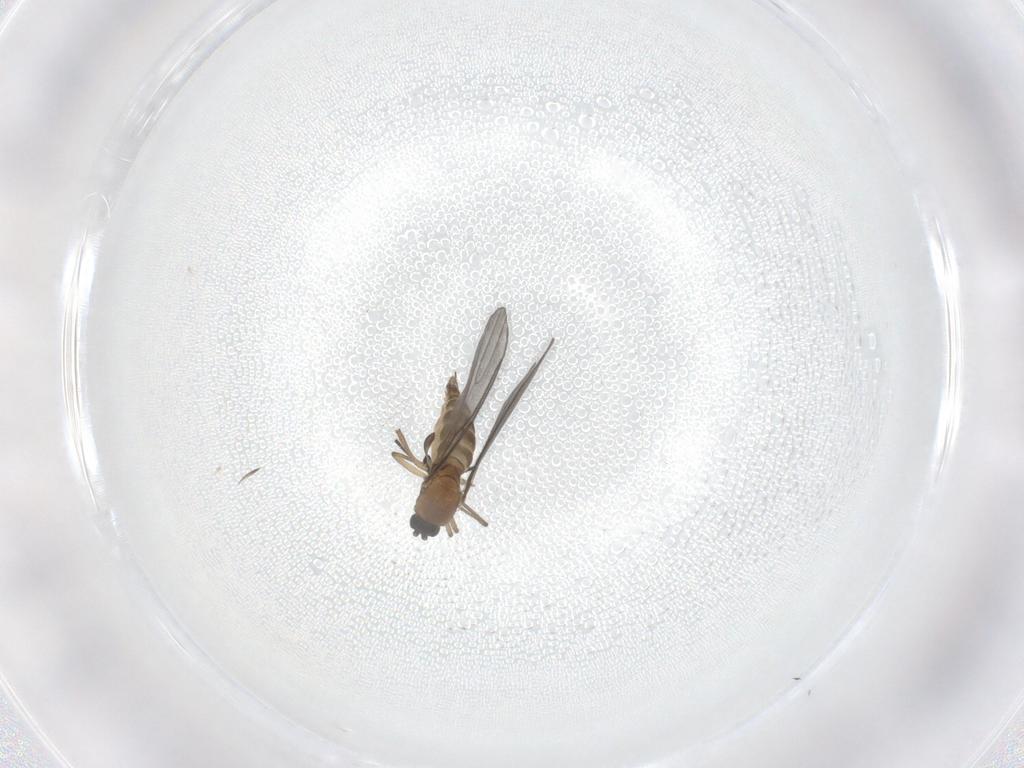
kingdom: Animalia
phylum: Arthropoda
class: Insecta
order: Diptera
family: Sciaridae
